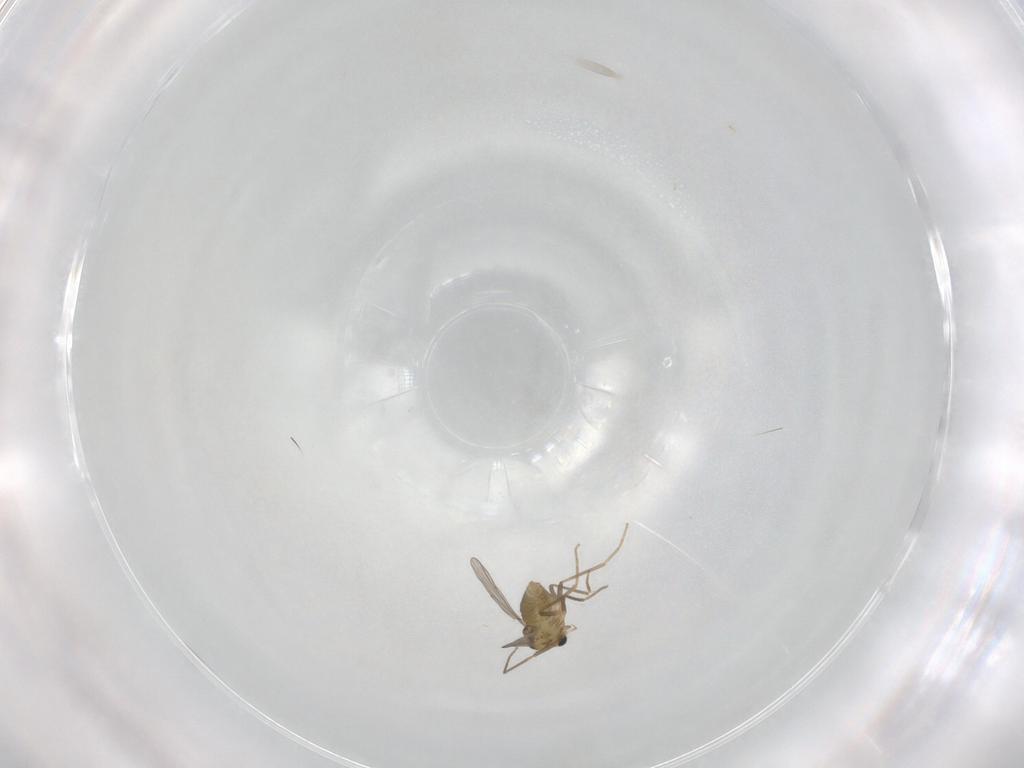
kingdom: Animalia
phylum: Arthropoda
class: Insecta
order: Diptera
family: Chironomidae
